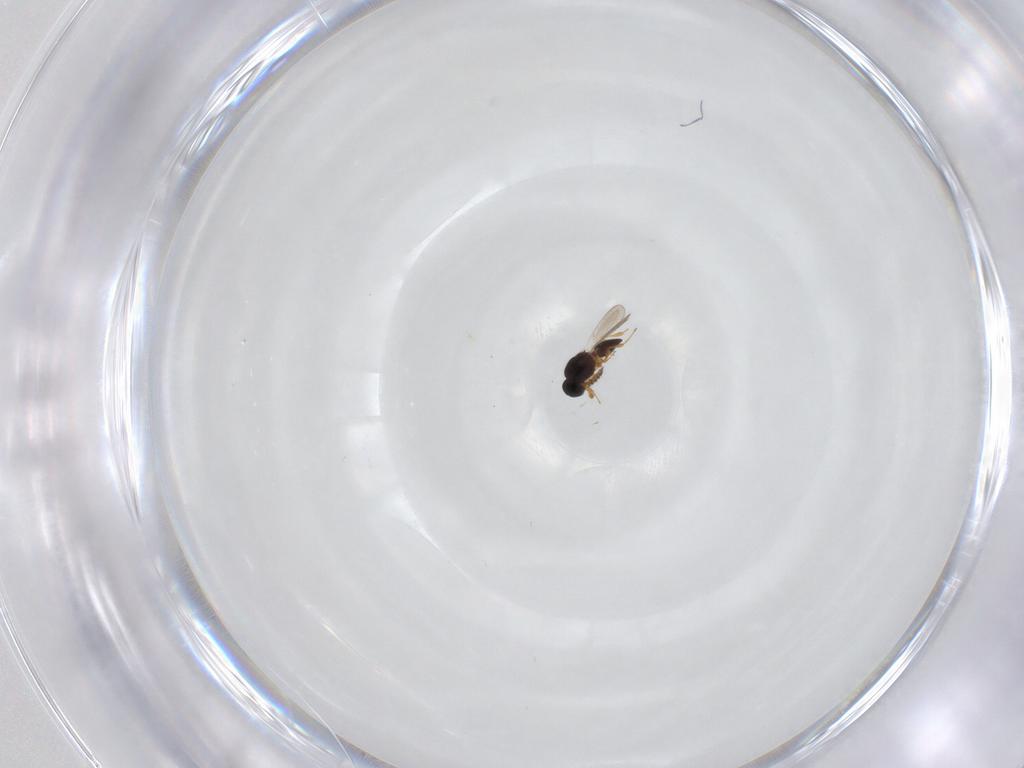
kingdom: Animalia
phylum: Arthropoda
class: Insecta
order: Hymenoptera
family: Platygastridae
